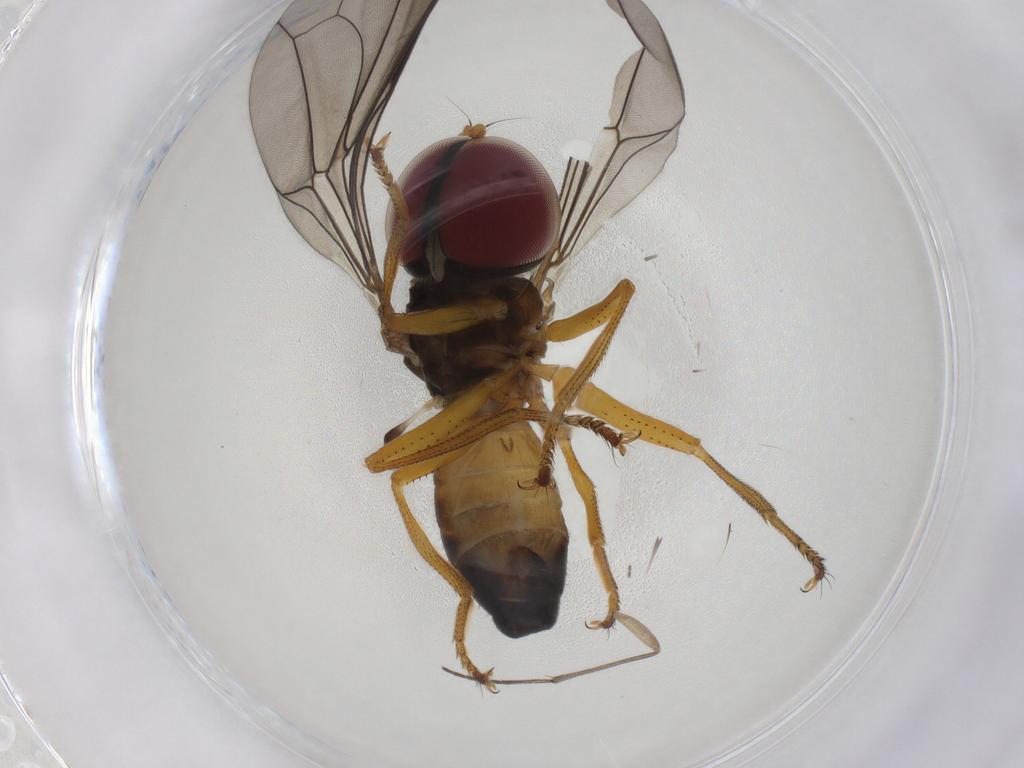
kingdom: Animalia
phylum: Arthropoda
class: Insecta
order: Diptera
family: Pipunculidae
